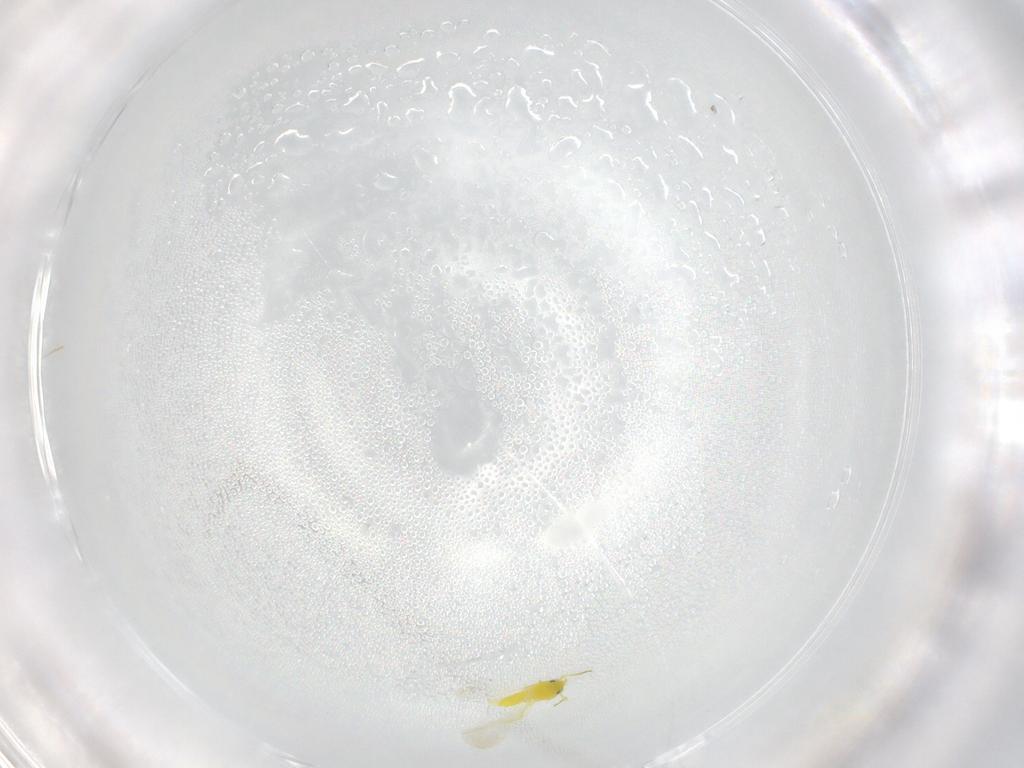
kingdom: Animalia
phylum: Arthropoda
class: Insecta
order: Hemiptera
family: Aleyrodidae
